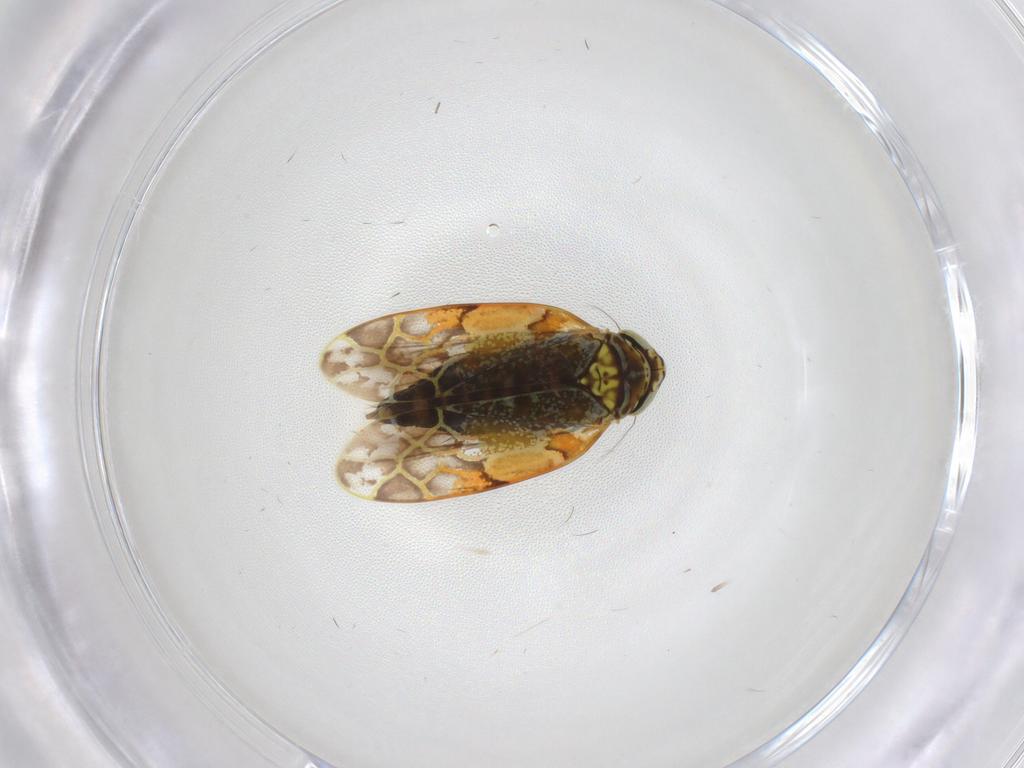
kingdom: Animalia
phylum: Arthropoda
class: Insecta
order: Hemiptera
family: Cicadellidae
